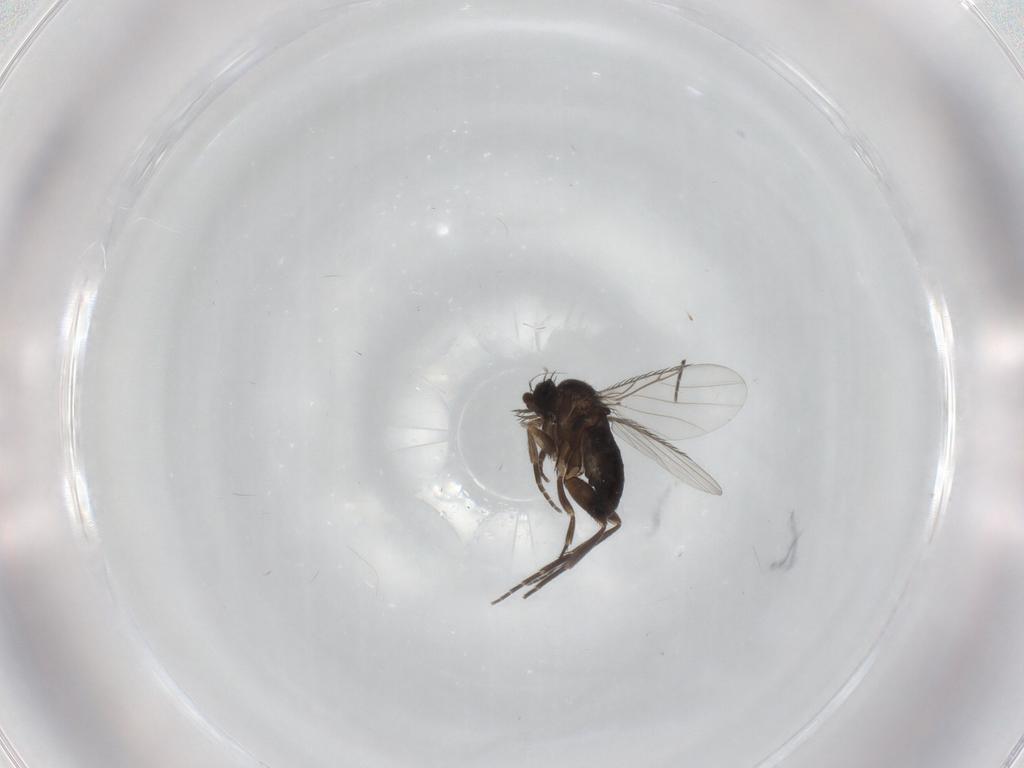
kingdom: Animalia
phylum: Arthropoda
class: Insecta
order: Diptera
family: Phoridae
